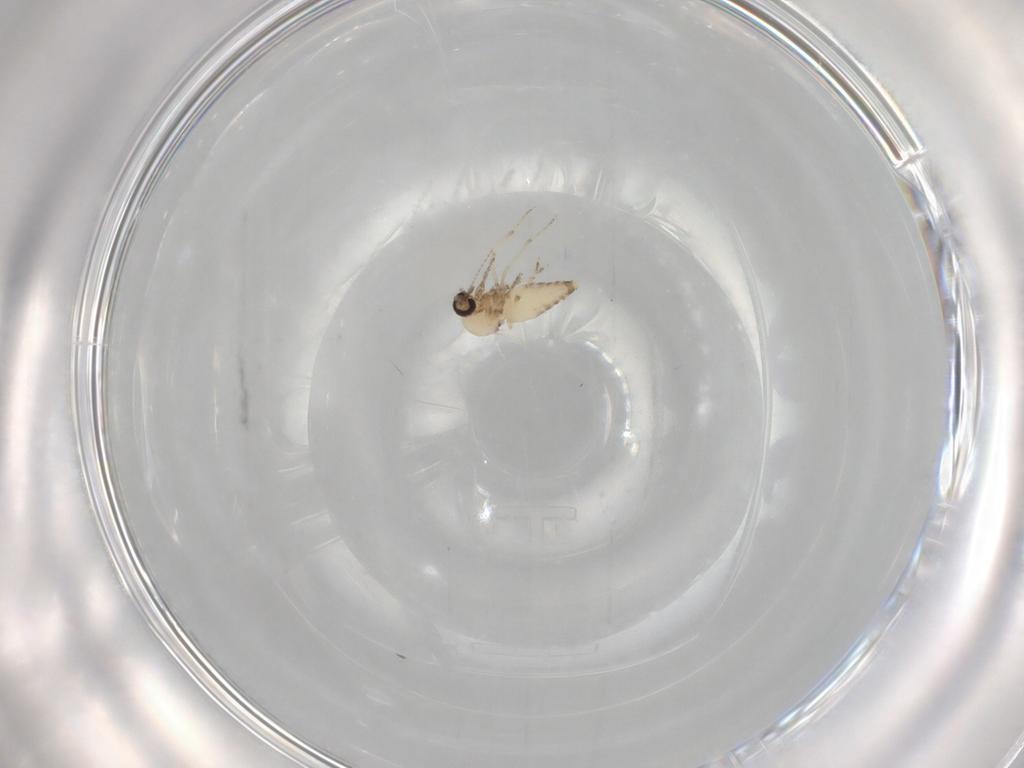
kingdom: Animalia
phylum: Arthropoda
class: Insecta
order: Diptera
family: Ceratopogonidae
